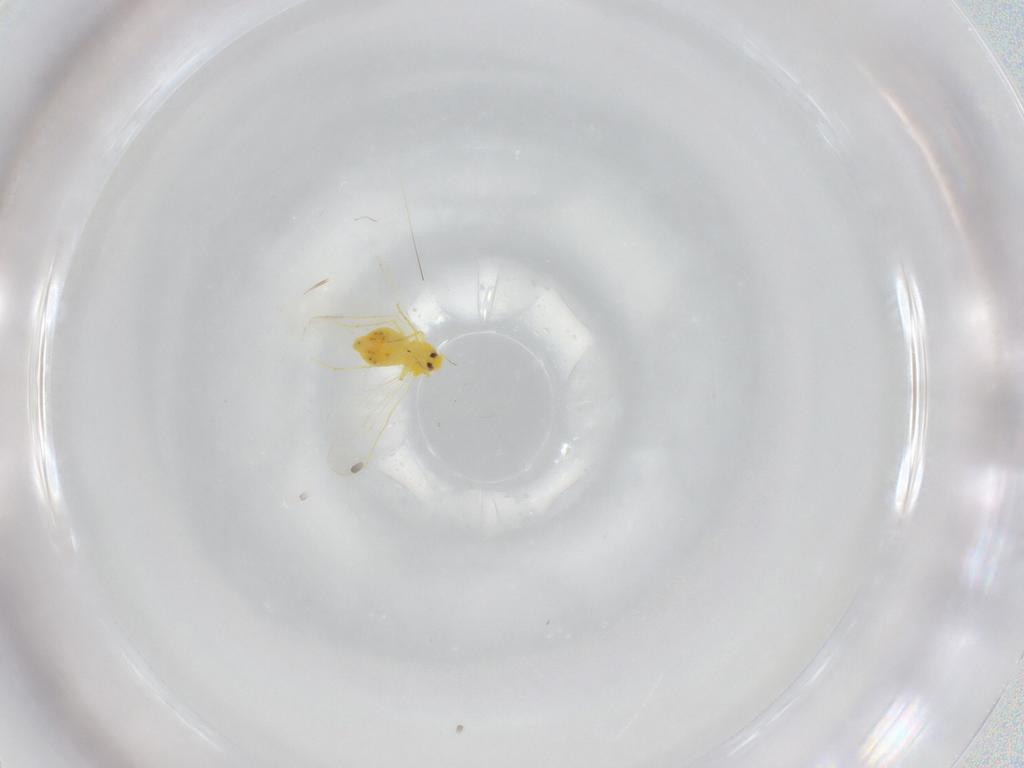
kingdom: Animalia
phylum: Arthropoda
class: Insecta
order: Hemiptera
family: Aleyrodidae
